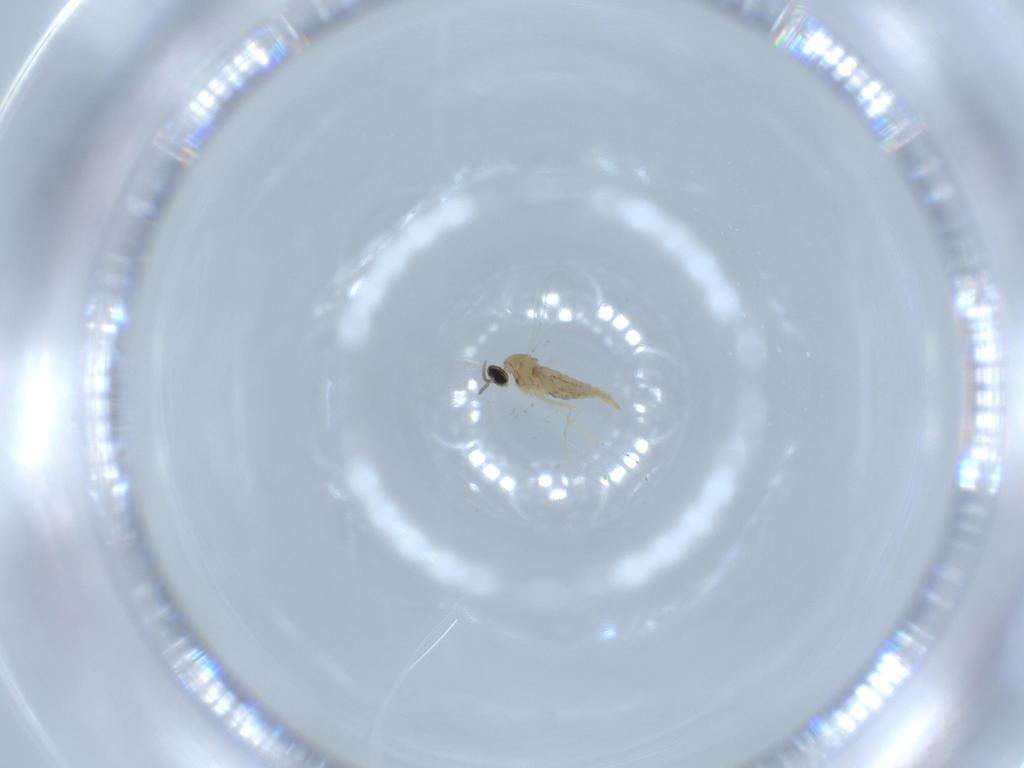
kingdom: Animalia
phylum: Arthropoda
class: Insecta
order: Diptera
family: Cecidomyiidae
